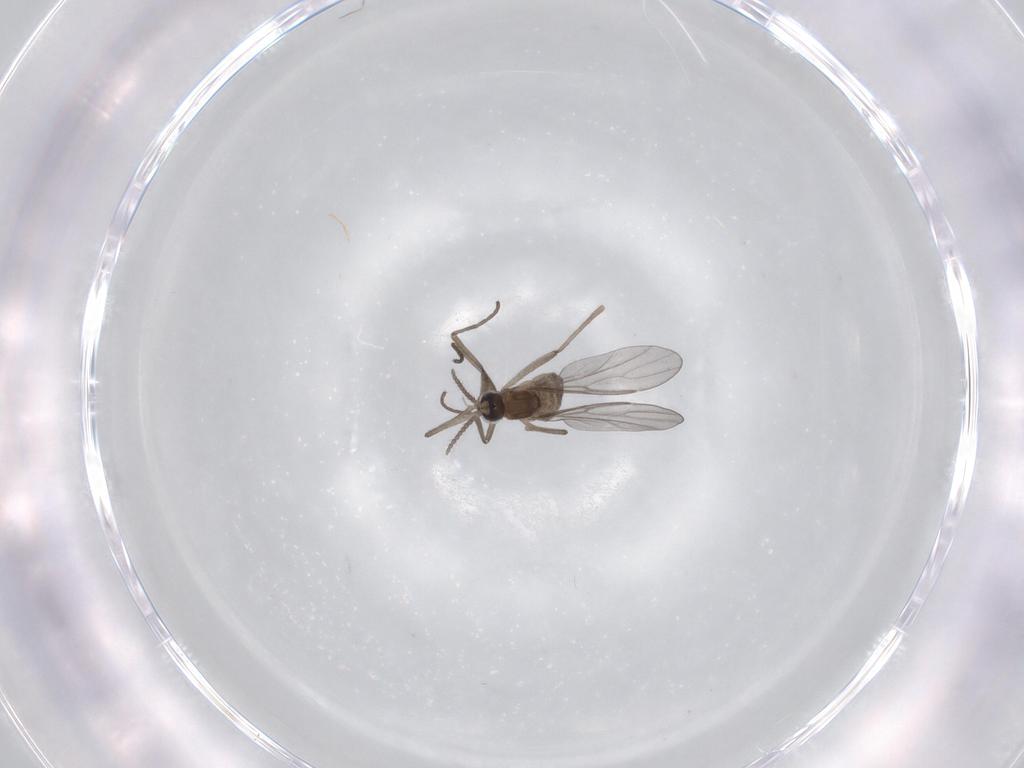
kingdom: Animalia
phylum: Arthropoda
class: Insecta
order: Diptera
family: Cecidomyiidae
